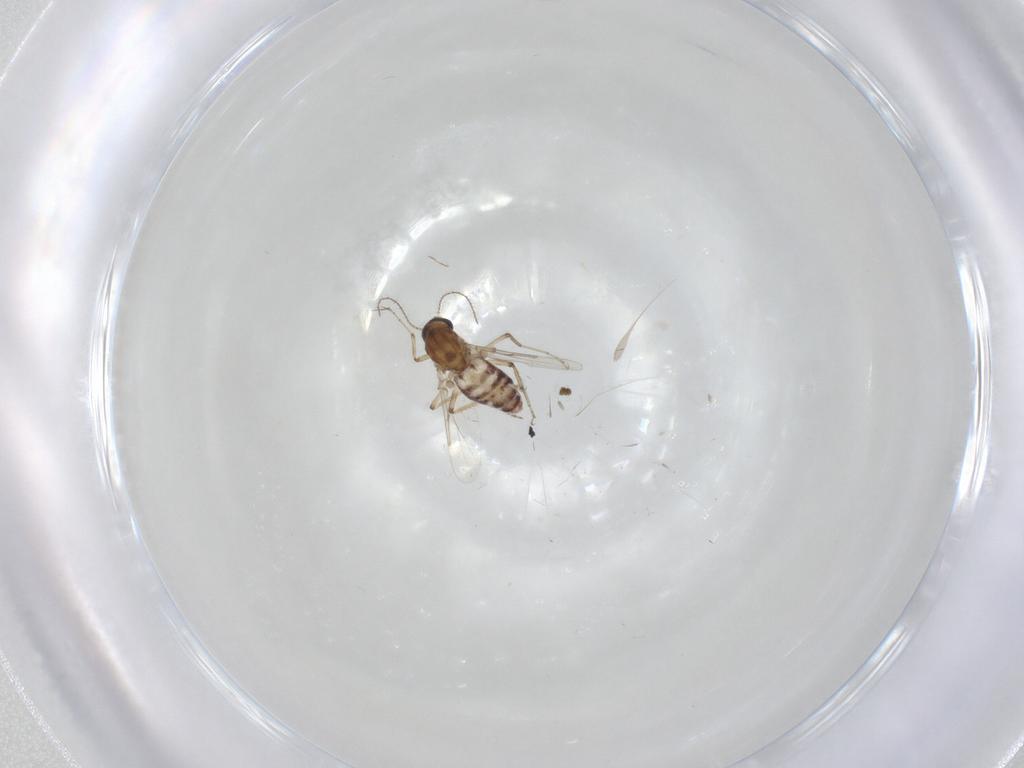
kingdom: Animalia
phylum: Arthropoda
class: Insecta
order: Diptera
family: Ceratopogonidae
